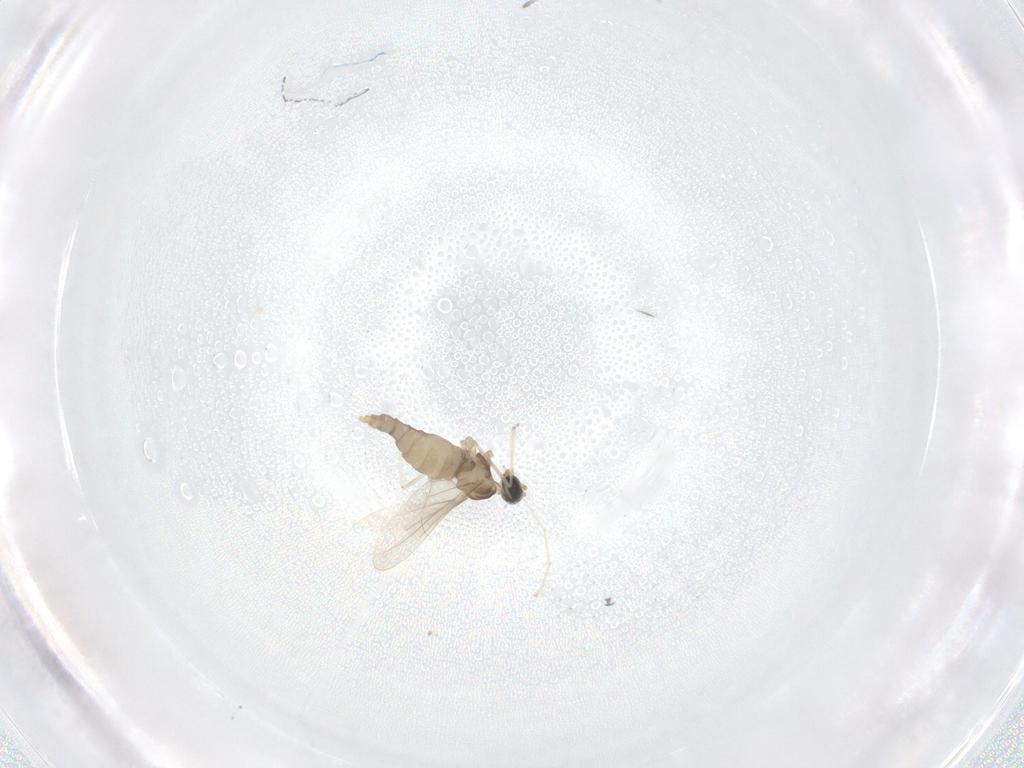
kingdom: Animalia
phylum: Arthropoda
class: Insecta
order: Diptera
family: Cecidomyiidae
